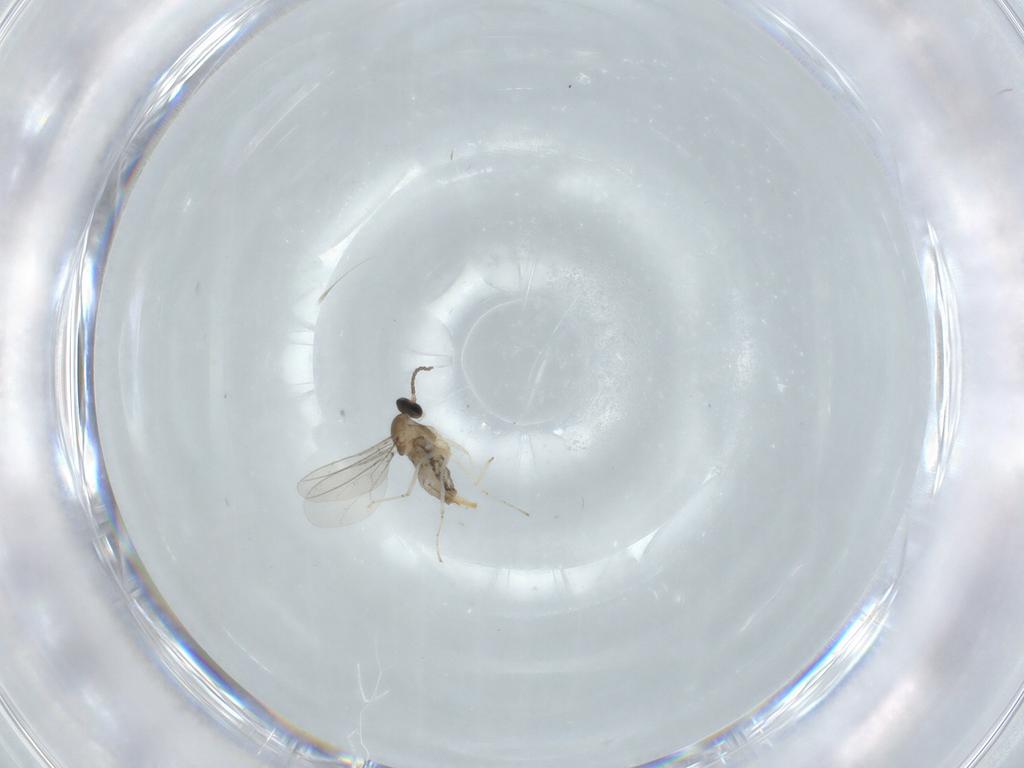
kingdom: Animalia
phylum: Arthropoda
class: Insecta
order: Diptera
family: Cecidomyiidae
